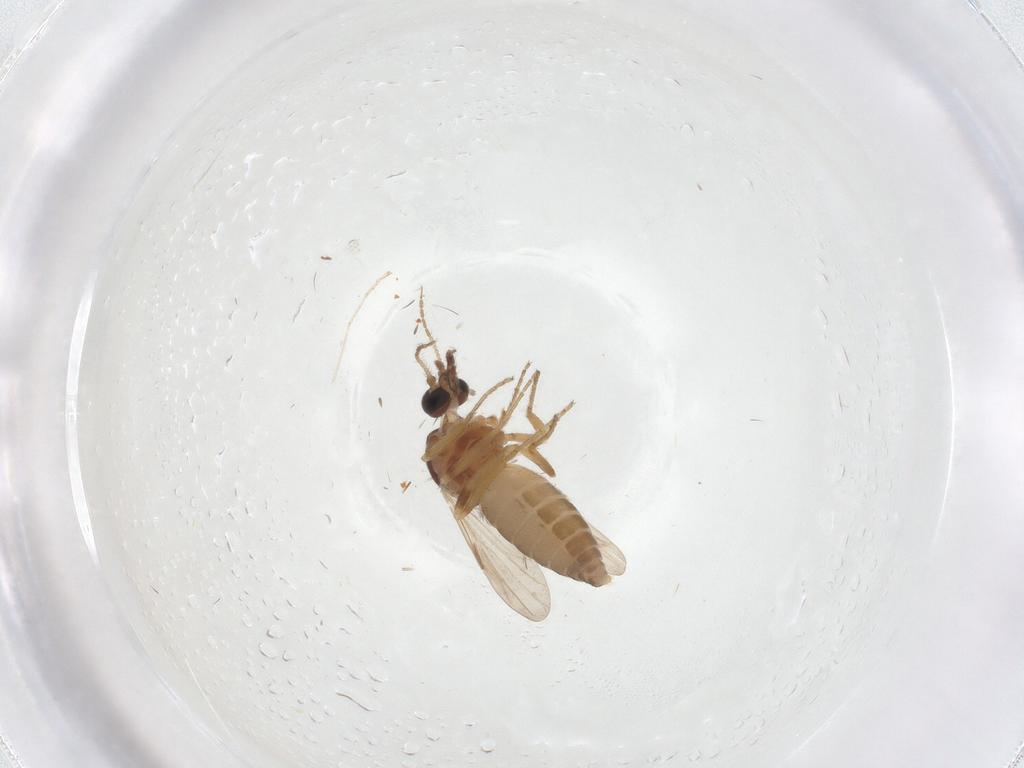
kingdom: Animalia
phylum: Arthropoda
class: Insecta
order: Diptera
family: Ceratopogonidae
